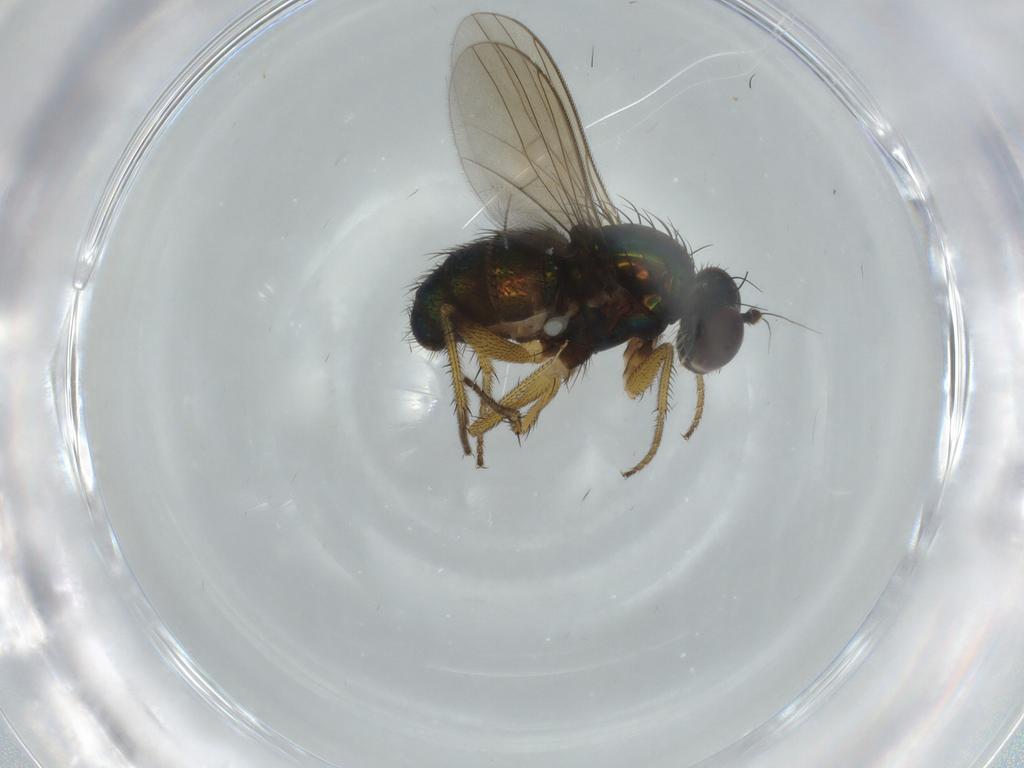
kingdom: Animalia
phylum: Arthropoda
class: Insecta
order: Diptera
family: Dolichopodidae
